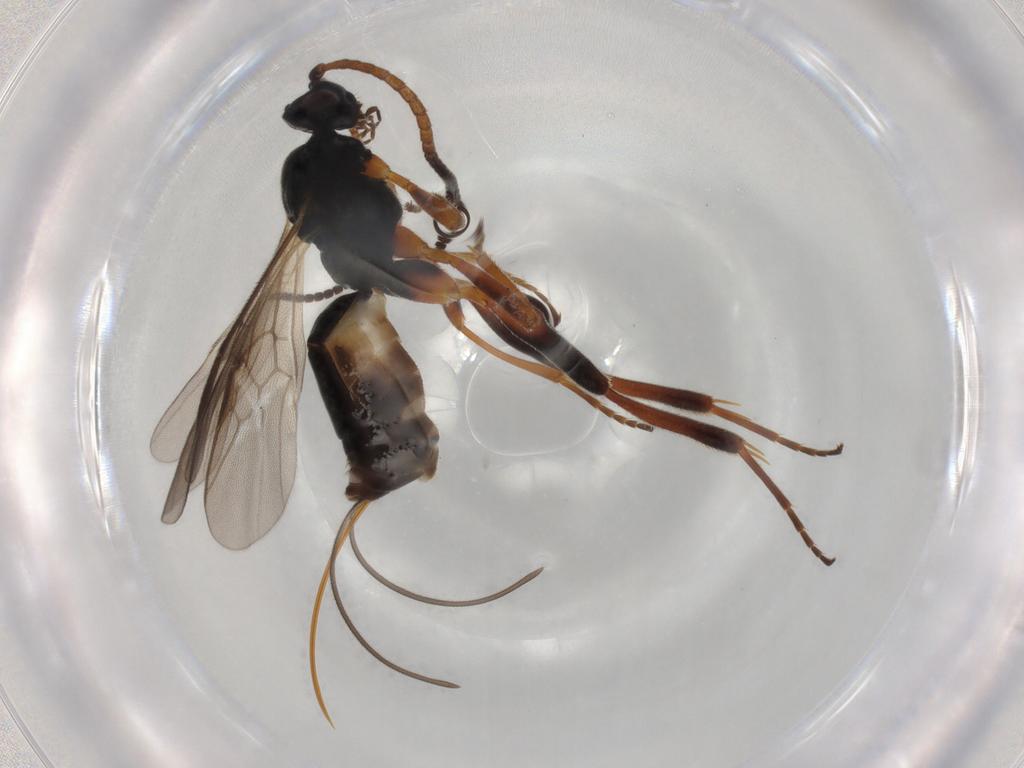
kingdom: Animalia
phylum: Arthropoda
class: Insecta
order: Hymenoptera
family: Braconidae
